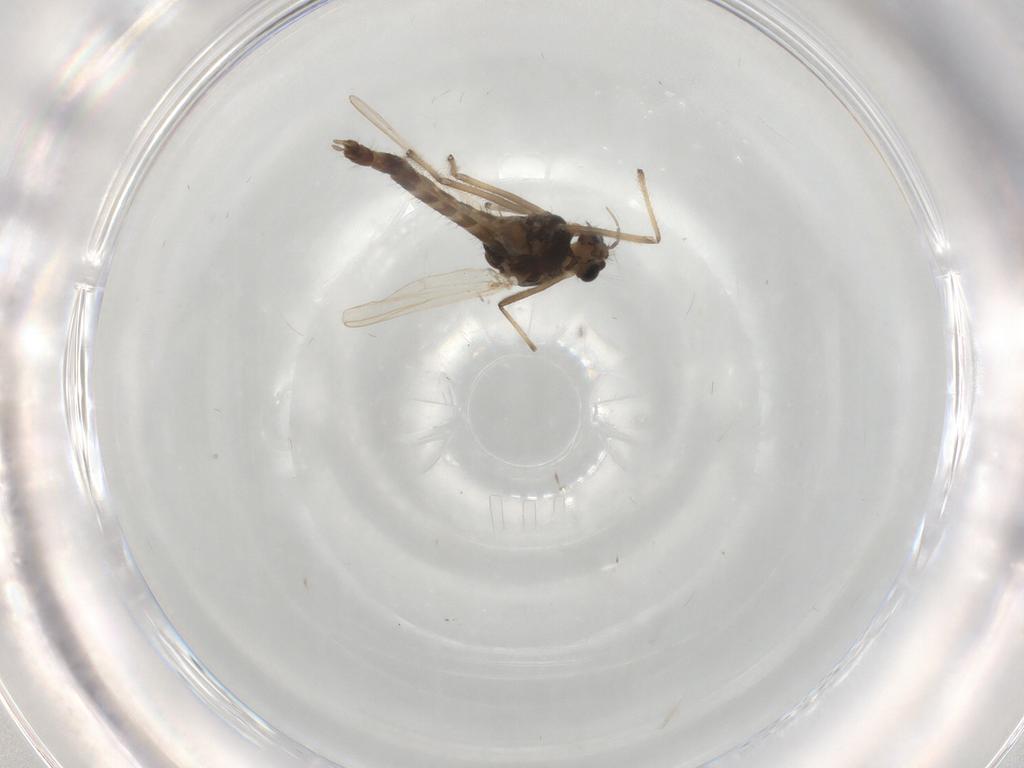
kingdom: Animalia
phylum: Arthropoda
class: Insecta
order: Diptera
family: Chironomidae
